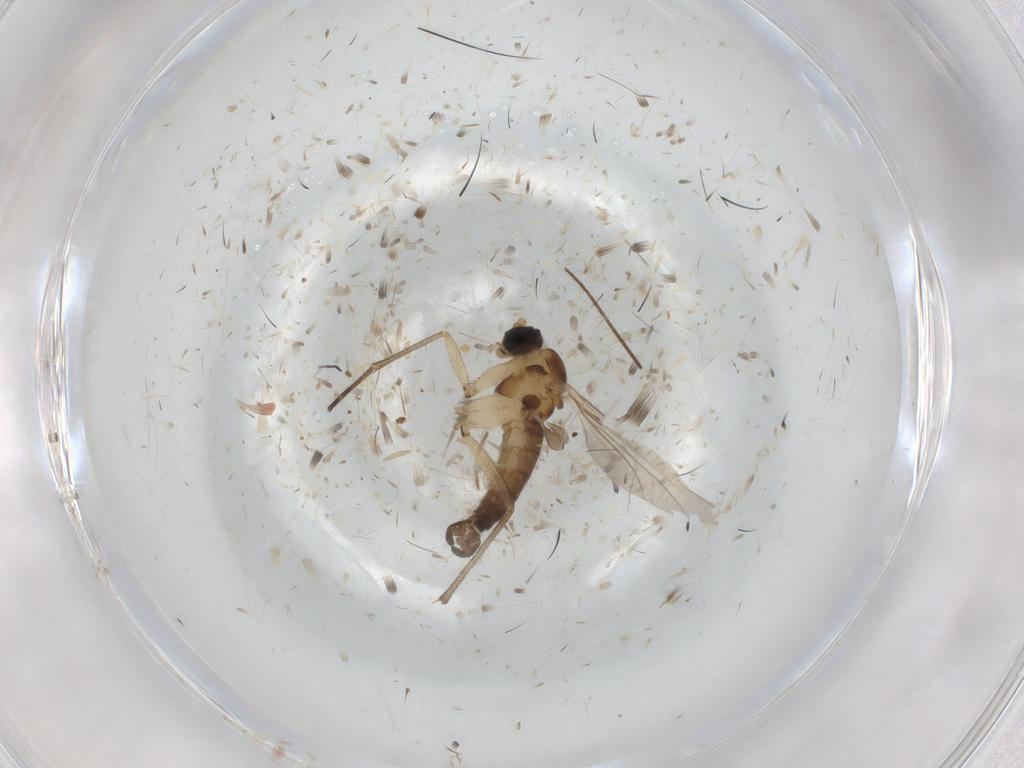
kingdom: Animalia
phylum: Arthropoda
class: Insecta
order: Diptera
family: Sciaridae
